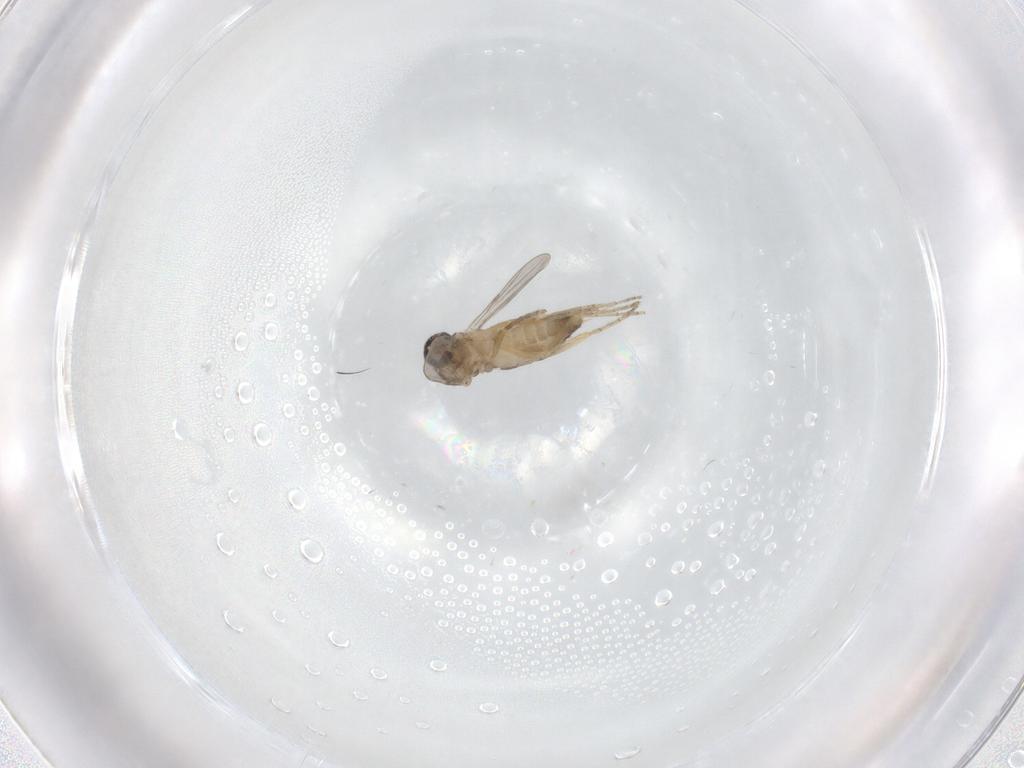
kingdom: Animalia
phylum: Arthropoda
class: Insecta
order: Diptera
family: Ceratopogonidae
